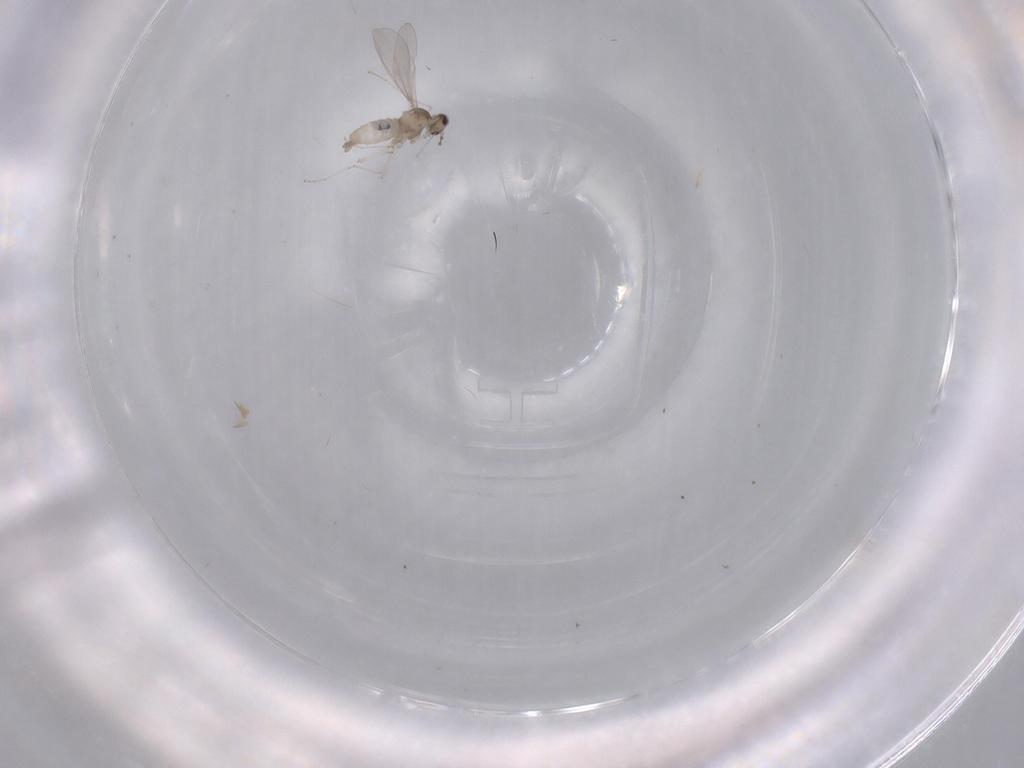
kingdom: Animalia
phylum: Arthropoda
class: Insecta
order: Diptera
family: Cecidomyiidae
